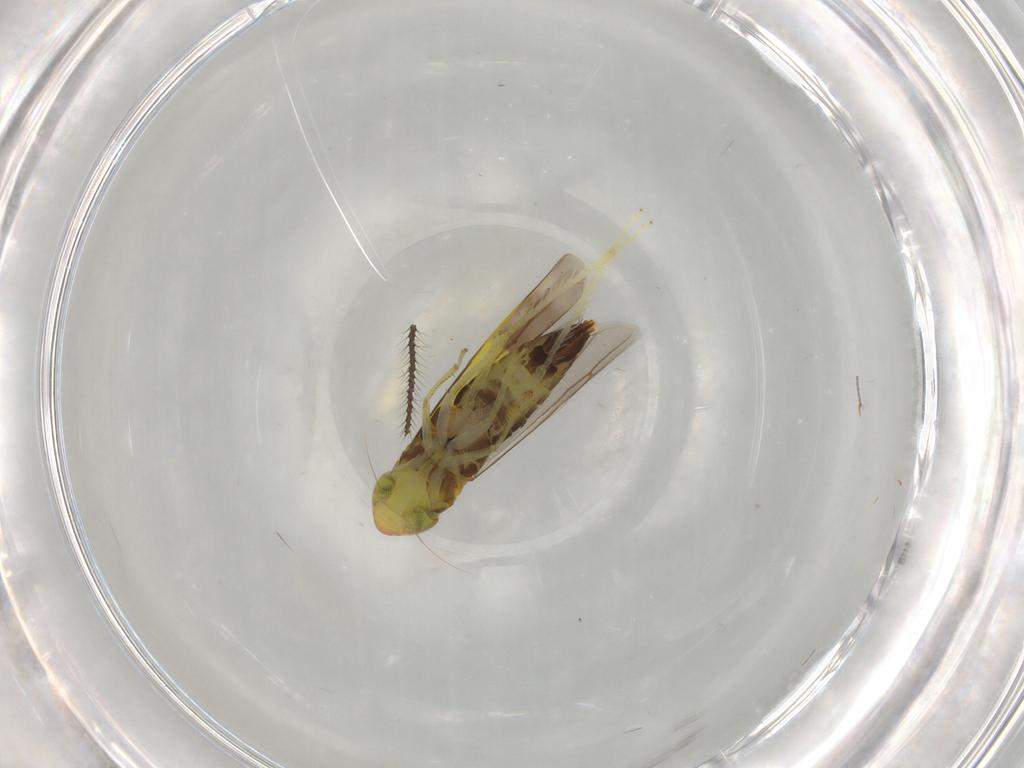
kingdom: Animalia
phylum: Arthropoda
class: Insecta
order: Hemiptera
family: Cicadellidae
